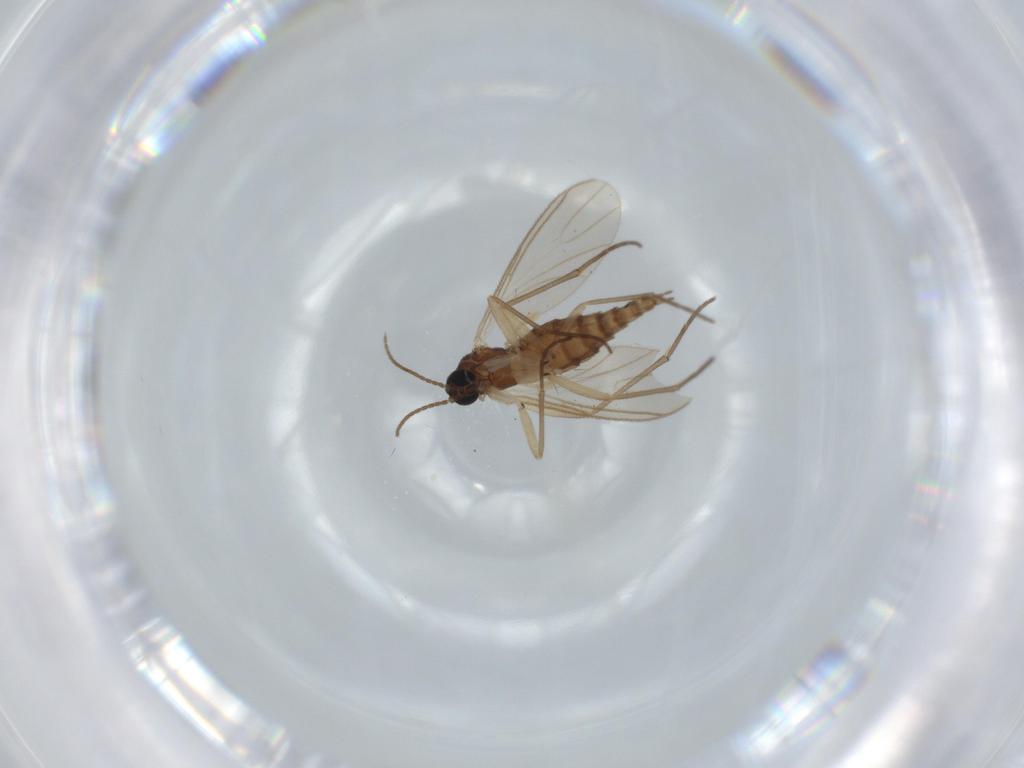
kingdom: Animalia
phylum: Arthropoda
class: Insecta
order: Diptera
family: Sciaridae
